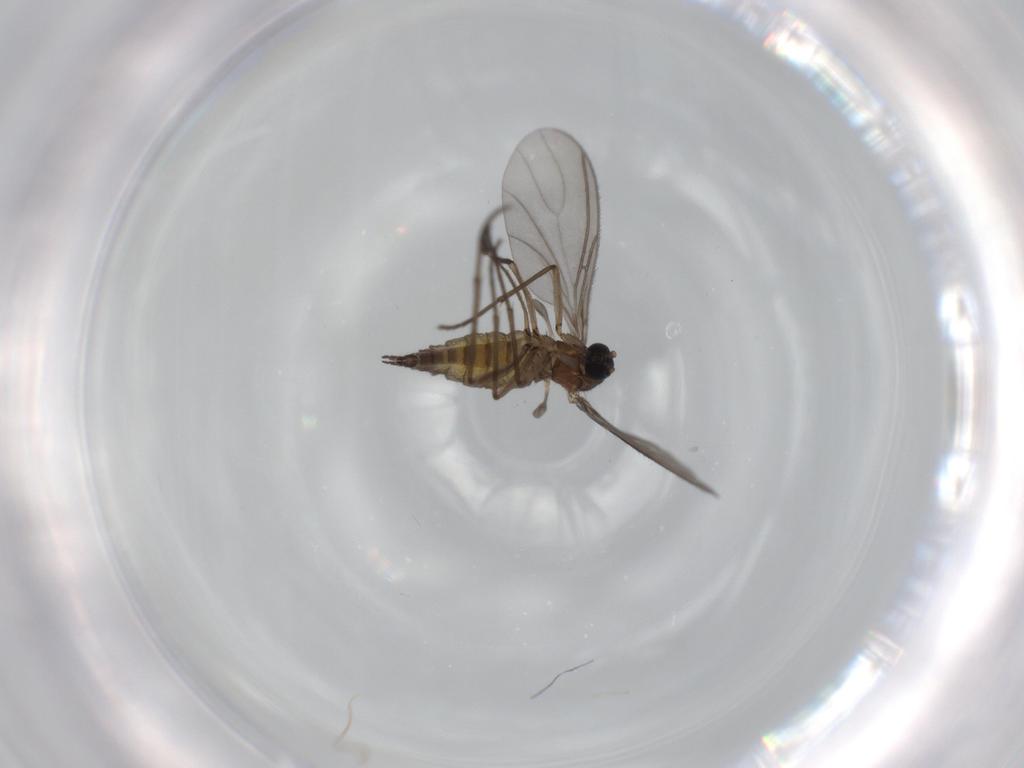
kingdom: Animalia
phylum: Arthropoda
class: Insecta
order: Diptera
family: Sciaridae
